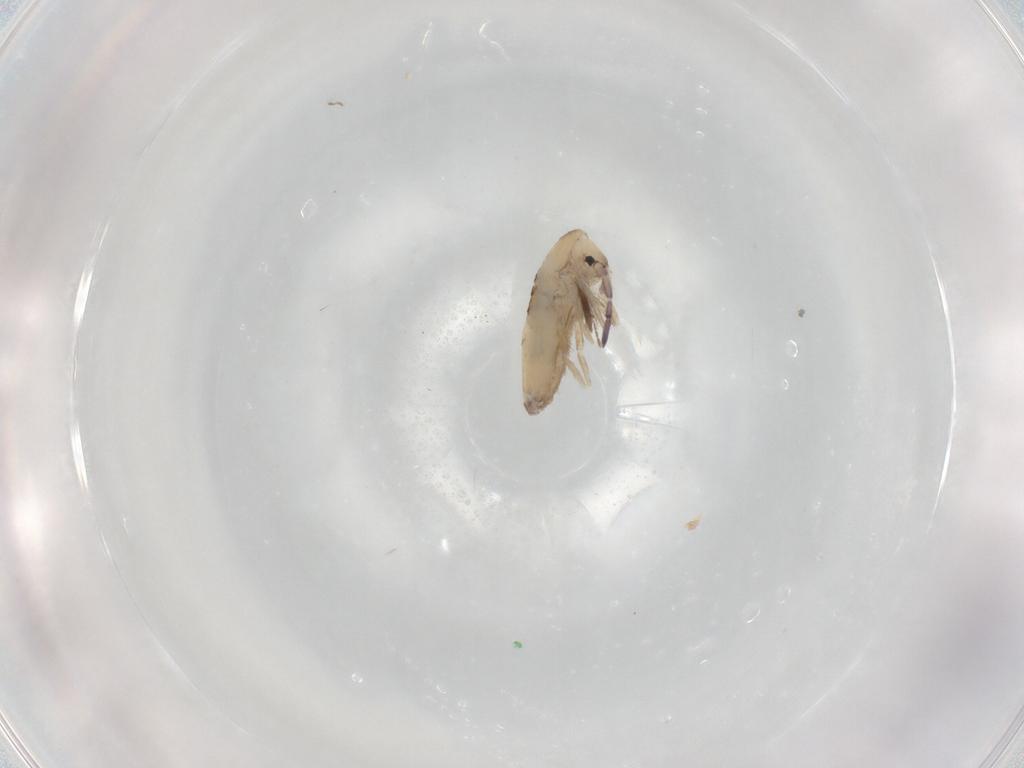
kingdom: Animalia
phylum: Arthropoda
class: Collembola
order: Entomobryomorpha
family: Entomobryidae
